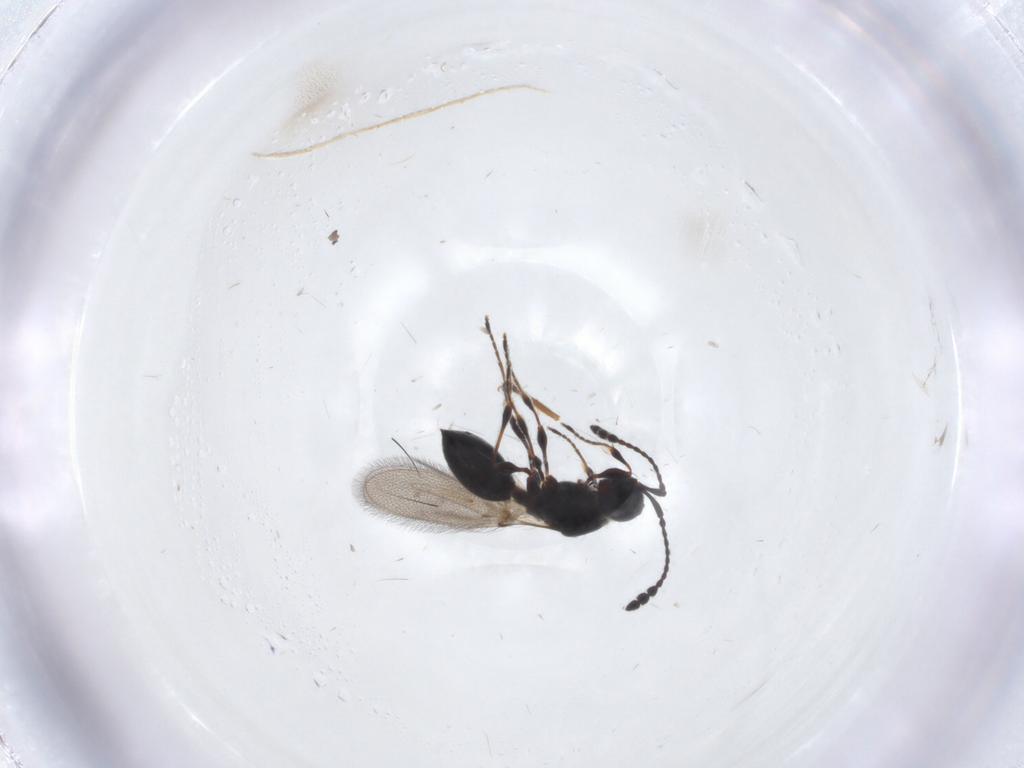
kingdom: Animalia
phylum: Arthropoda
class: Insecta
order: Hymenoptera
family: Diapriidae
